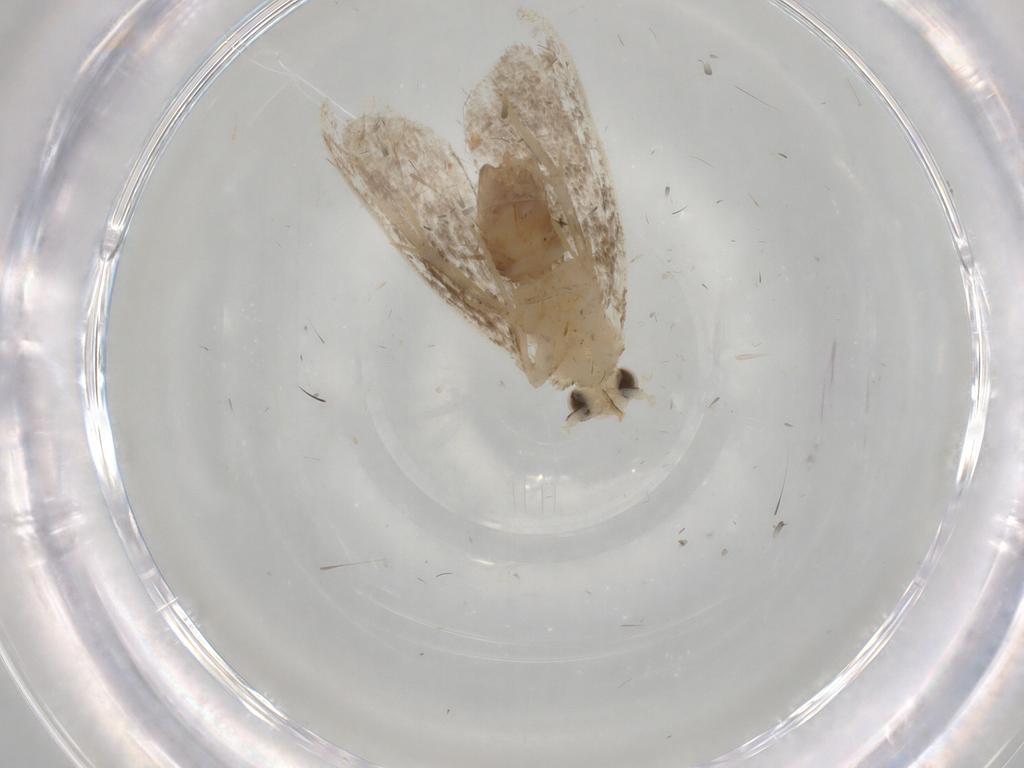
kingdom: Animalia
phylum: Arthropoda
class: Insecta
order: Lepidoptera
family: Dryadaulidae
